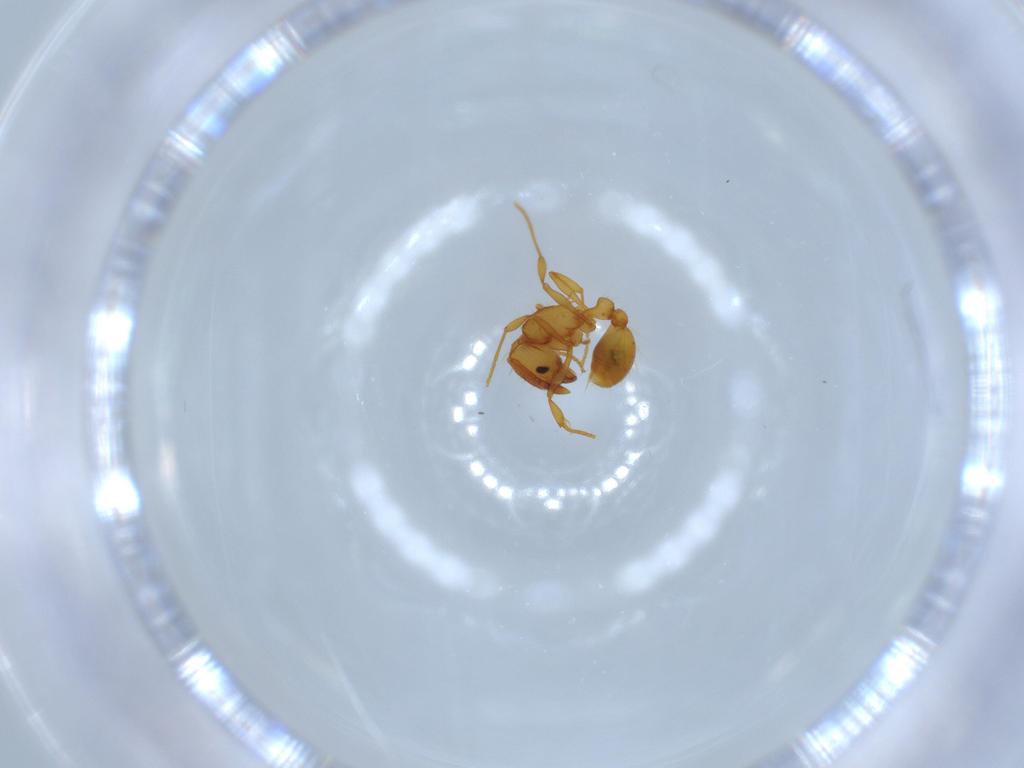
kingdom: Animalia
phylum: Arthropoda
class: Insecta
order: Hymenoptera
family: Formicidae
